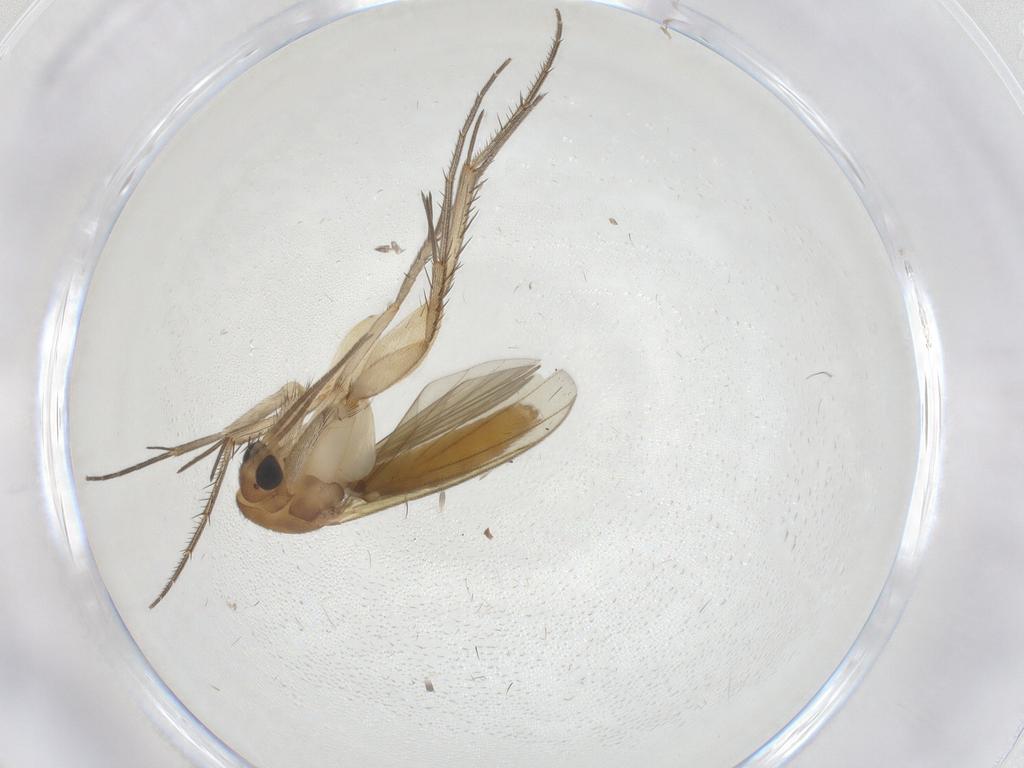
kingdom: Animalia
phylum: Arthropoda
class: Insecta
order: Diptera
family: Mycetophilidae
